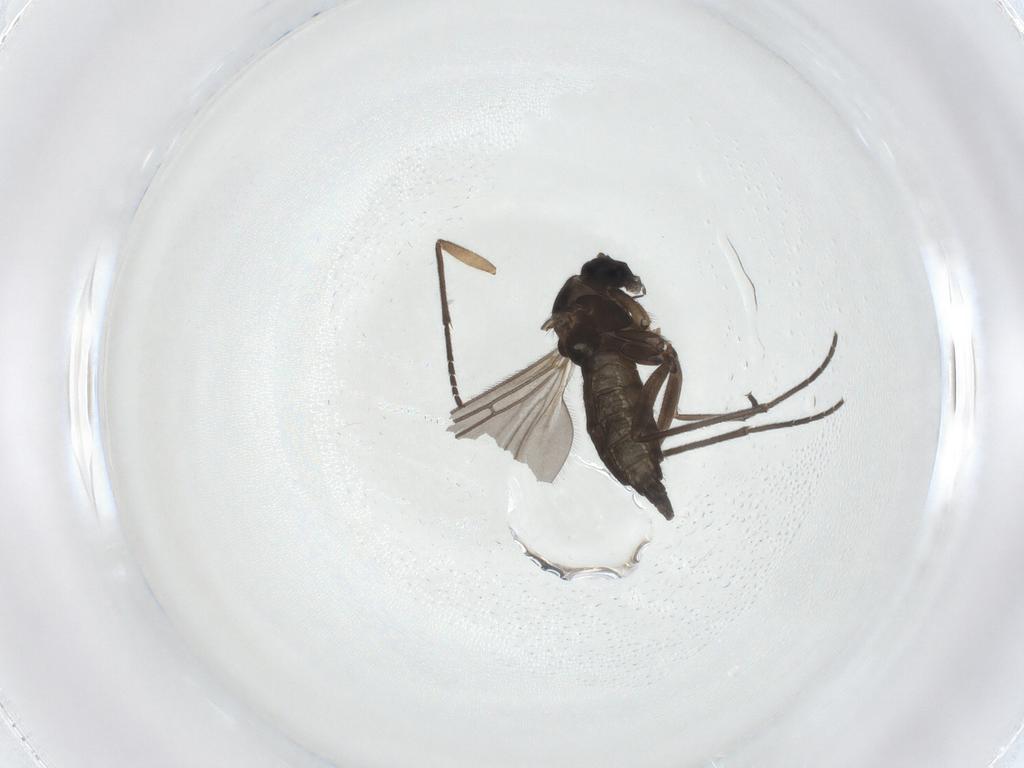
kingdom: Animalia
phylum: Arthropoda
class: Insecta
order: Diptera
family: Sciaridae
